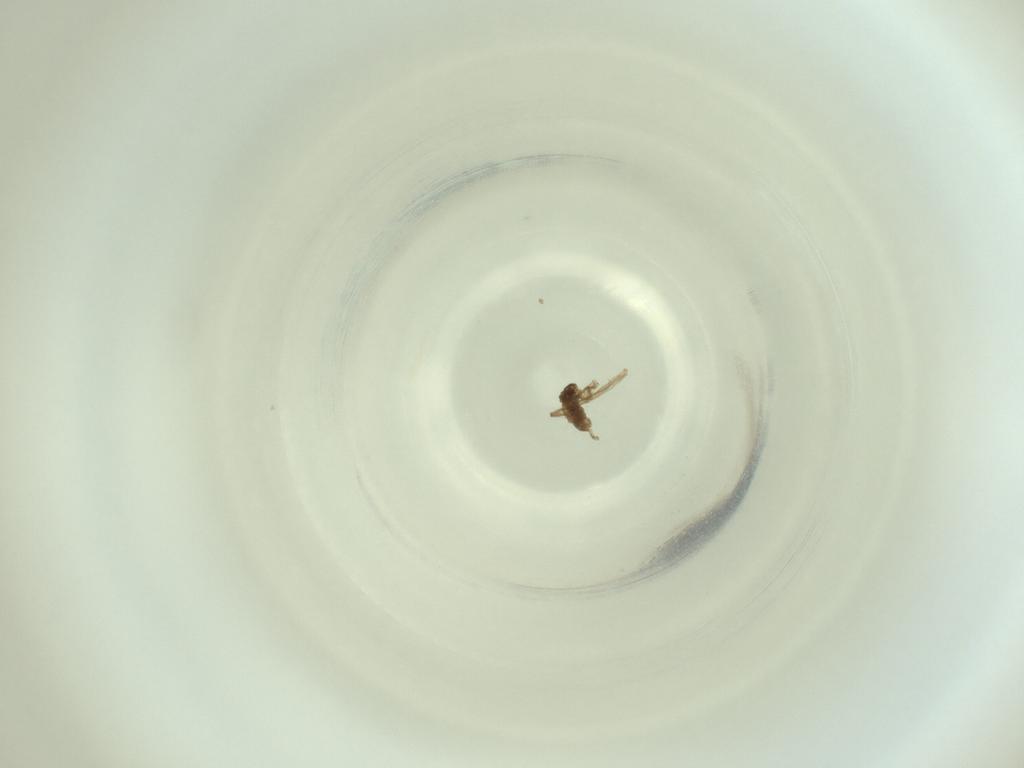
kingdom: Animalia
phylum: Arthropoda
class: Insecta
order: Diptera
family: Cecidomyiidae
